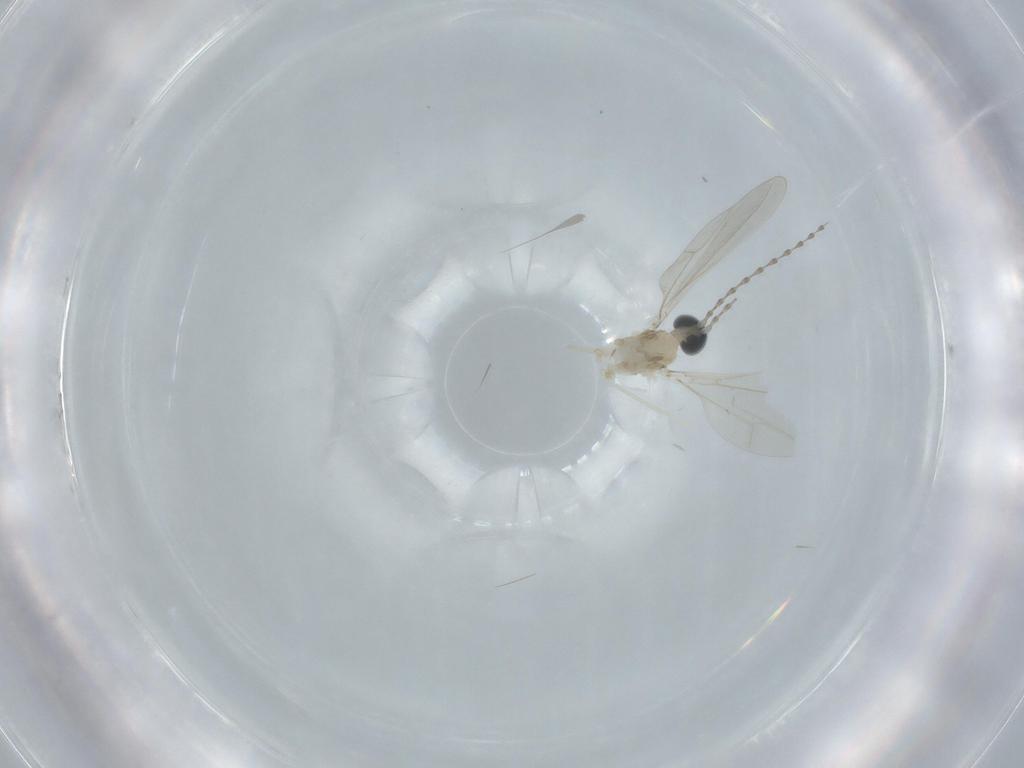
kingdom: Animalia
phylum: Arthropoda
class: Insecta
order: Diptera
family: Cecidomyiidae
